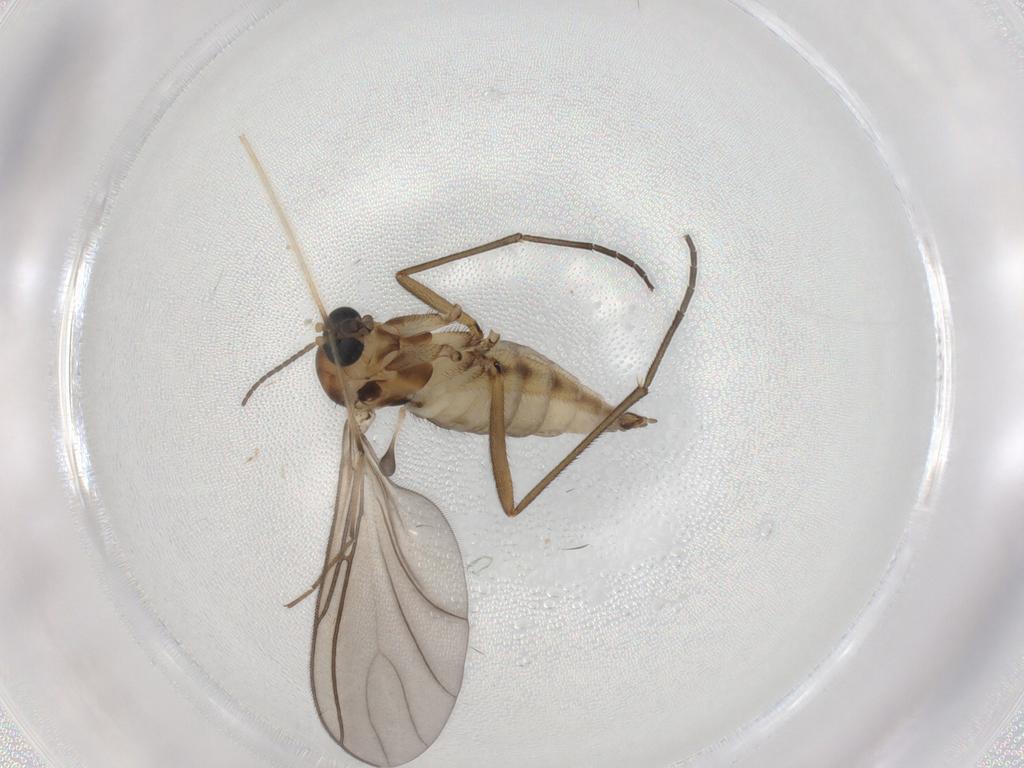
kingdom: Animalia
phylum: Arthropoda
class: Insecta
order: Diptera
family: Sciaridae
